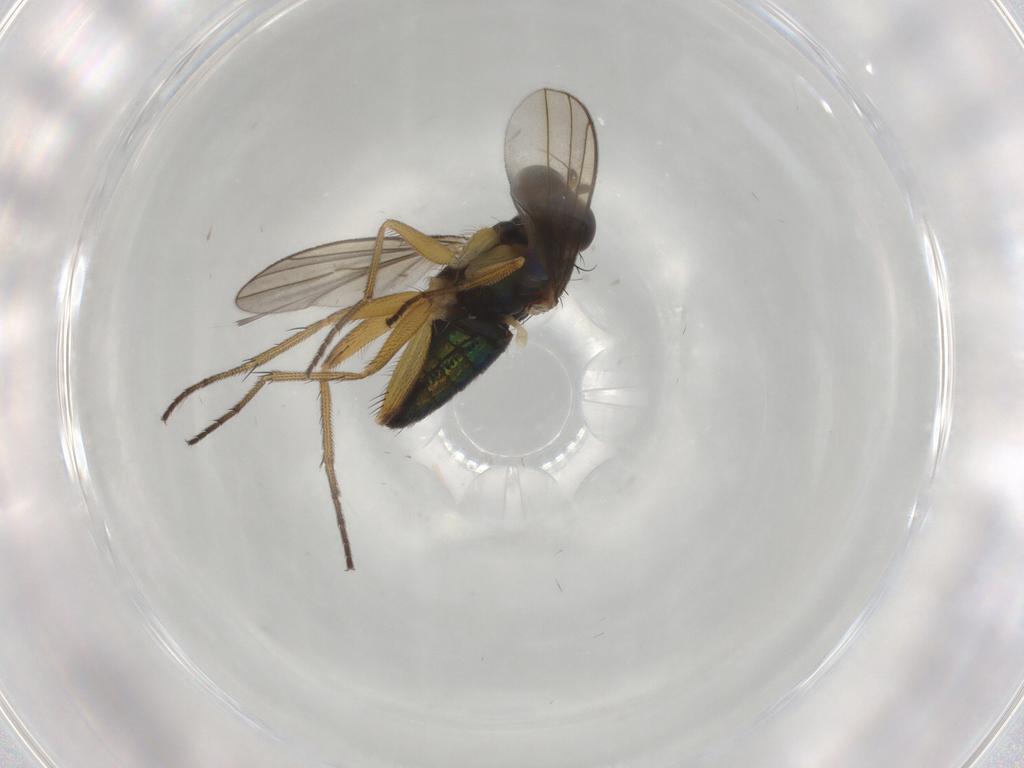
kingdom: Animalia
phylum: Arthropoda
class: Insecta
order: Diptera
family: Dolichopodidae
